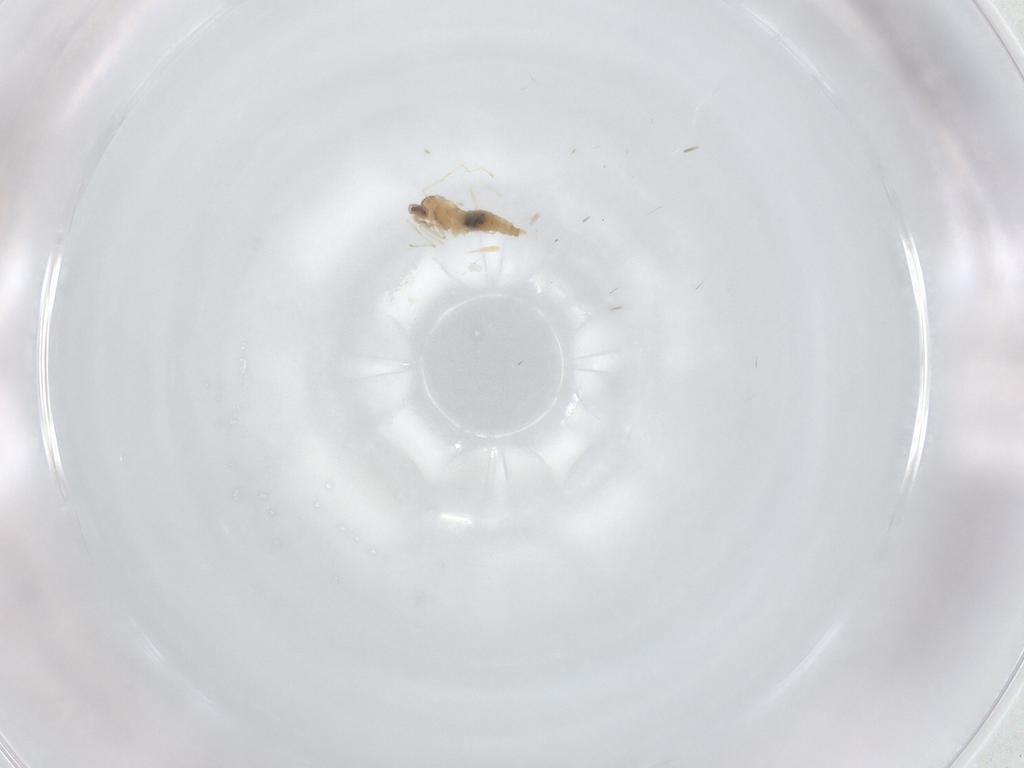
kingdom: Animalia
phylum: Arthropoda
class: Insecta
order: Diptera
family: Cecidomyiidae
